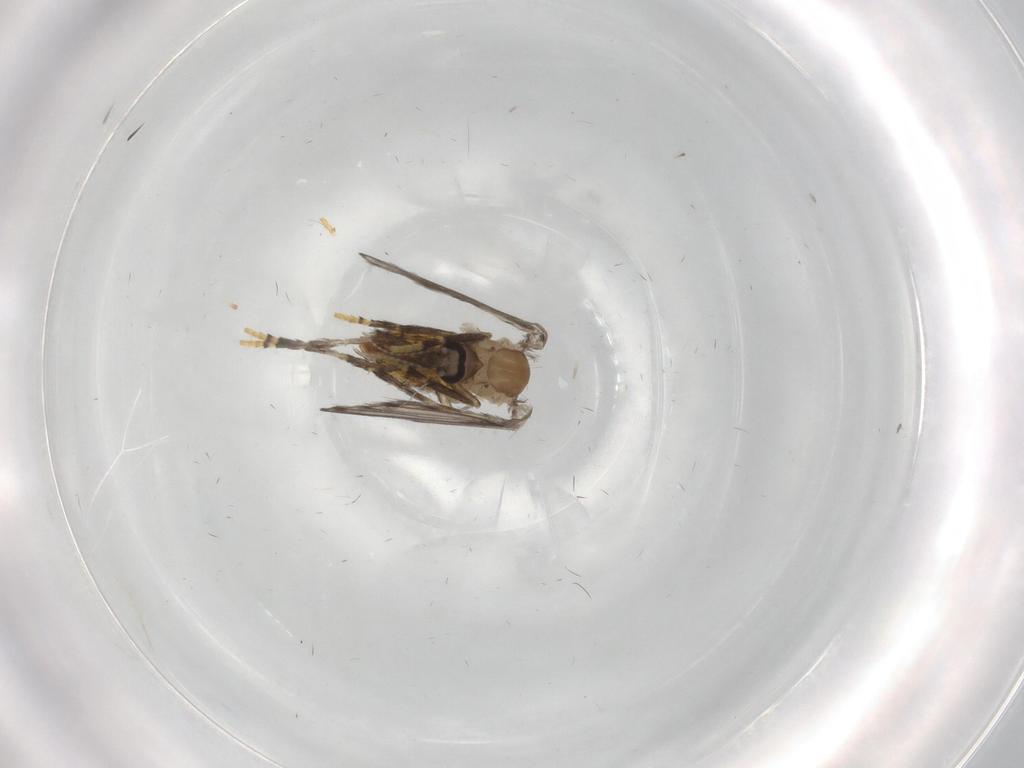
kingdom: Animalia
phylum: Arthropoda
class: Insecta
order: Diptera
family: Psychodidae
